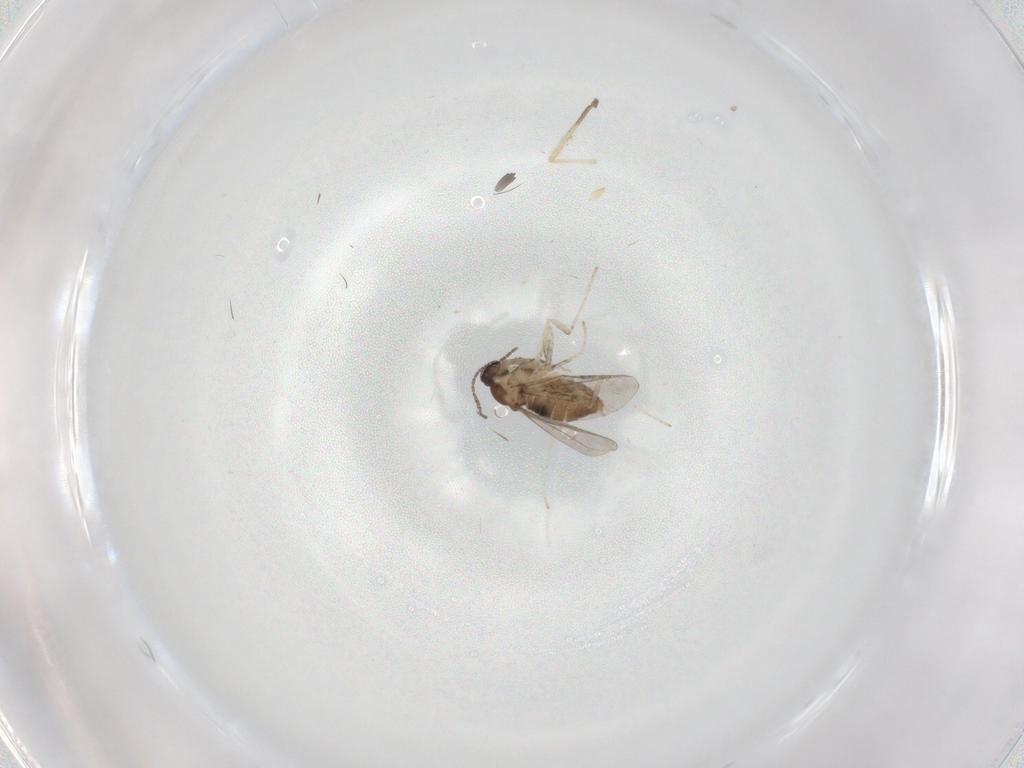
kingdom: Animalia
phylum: Arthropoda
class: Insecta
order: Diptera
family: Chironomidae
